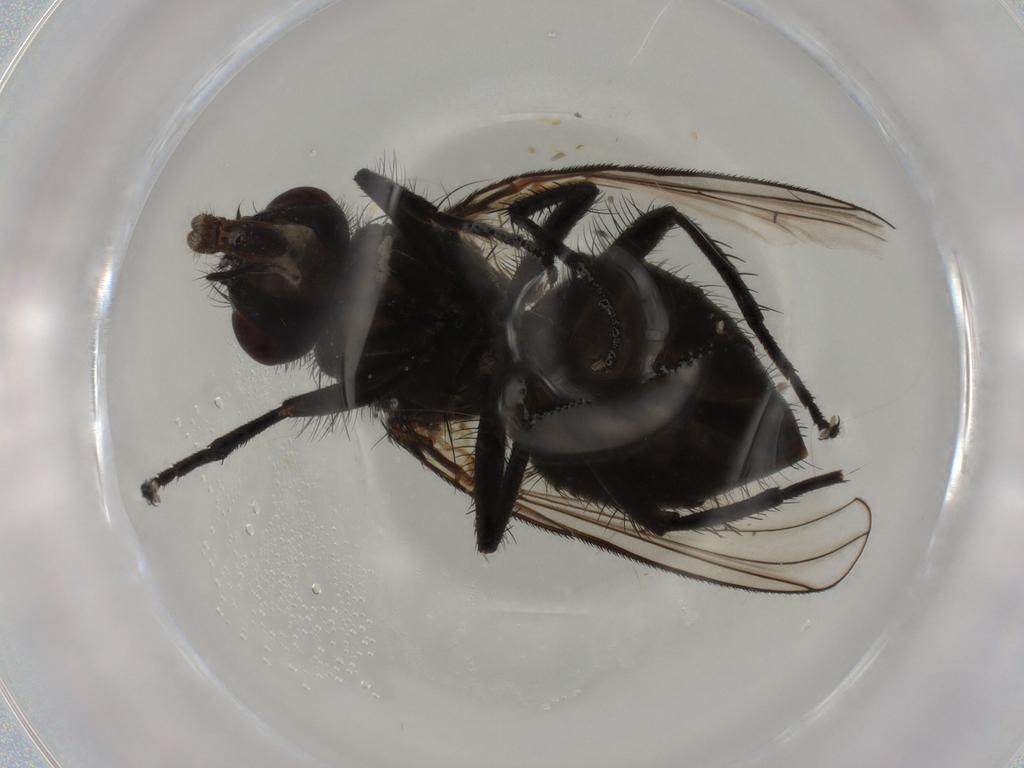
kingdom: Animalia
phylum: Arthropoda
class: Insecta
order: Diptera
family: Muscidae
